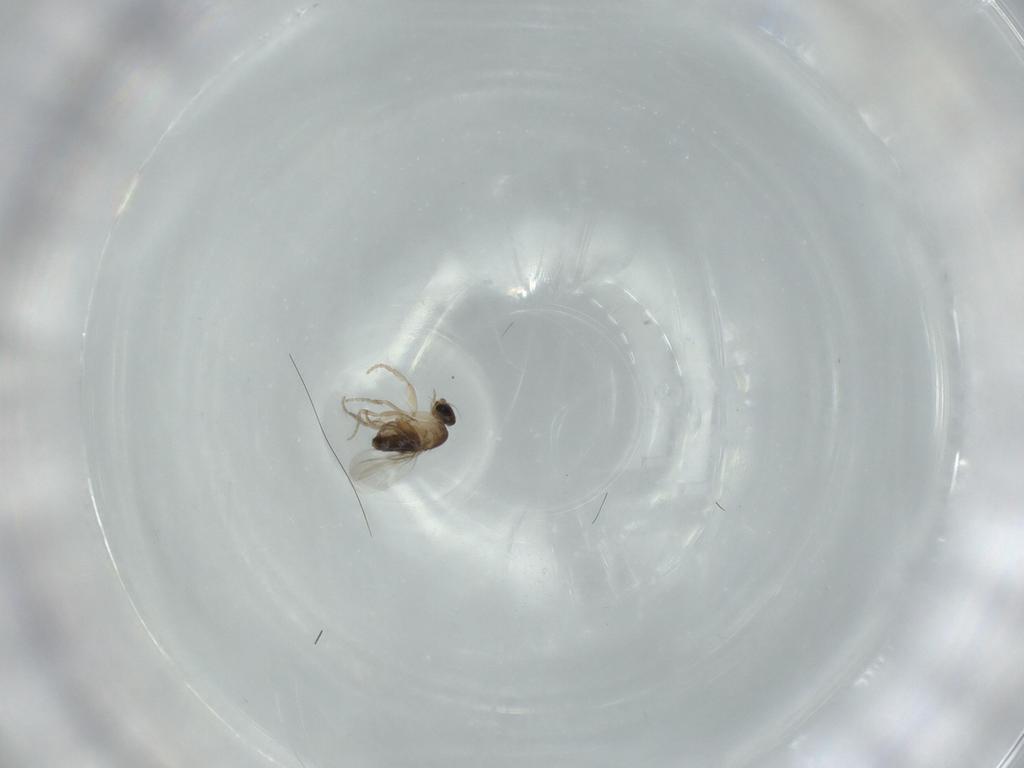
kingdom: Animalia
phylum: Arthropoda
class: Insecta
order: Diptera
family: Phoridae
